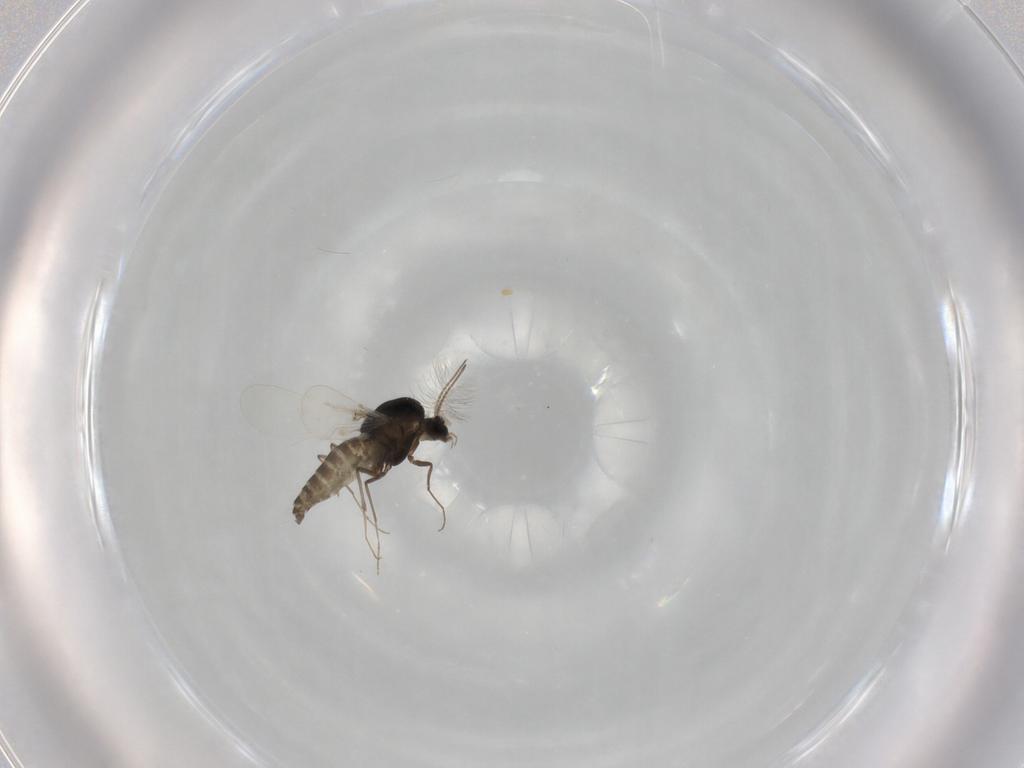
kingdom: Animalia
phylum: Arthropoda
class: Insecta
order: Diptera
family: Chironomidae
